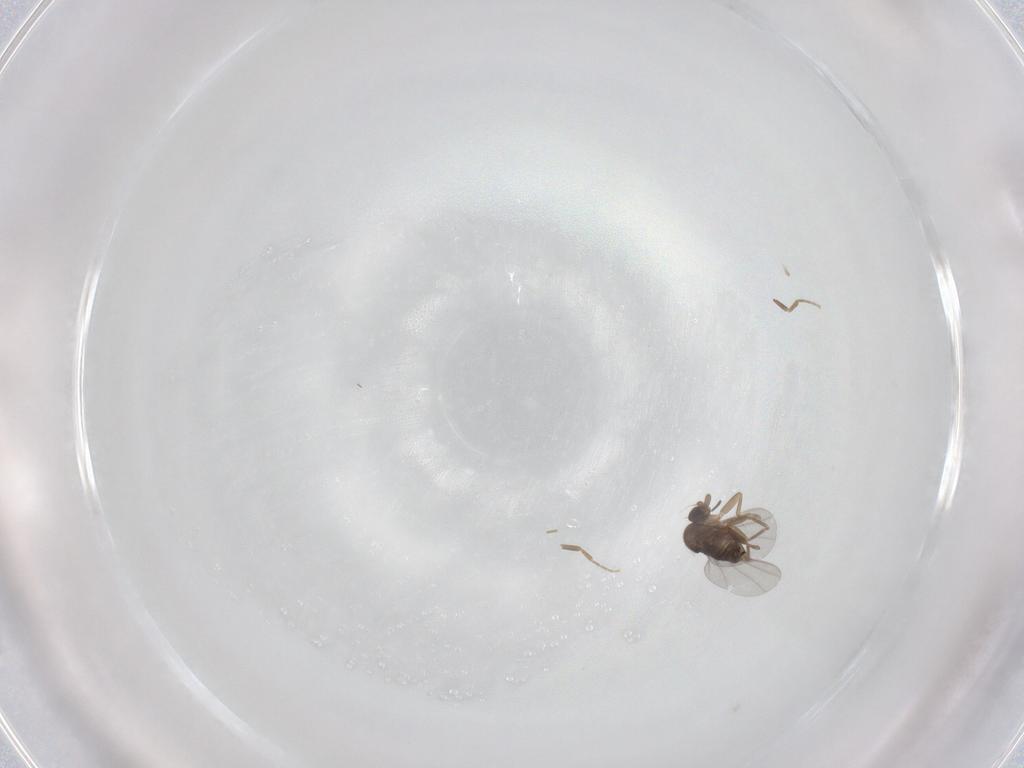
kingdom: Animalia
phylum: Arthropoda
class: Insecta
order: Diptera
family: Phoridae
